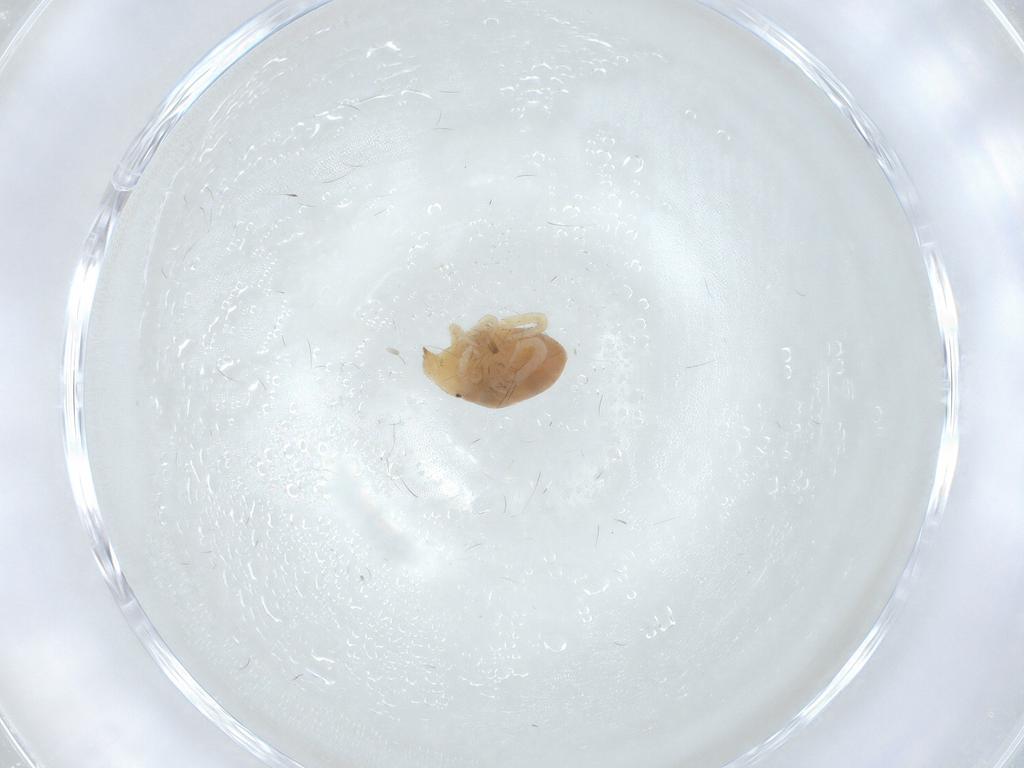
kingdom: Animalia
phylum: Arthropoda
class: Arachnida
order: Trombidiformes
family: Bdellidae
